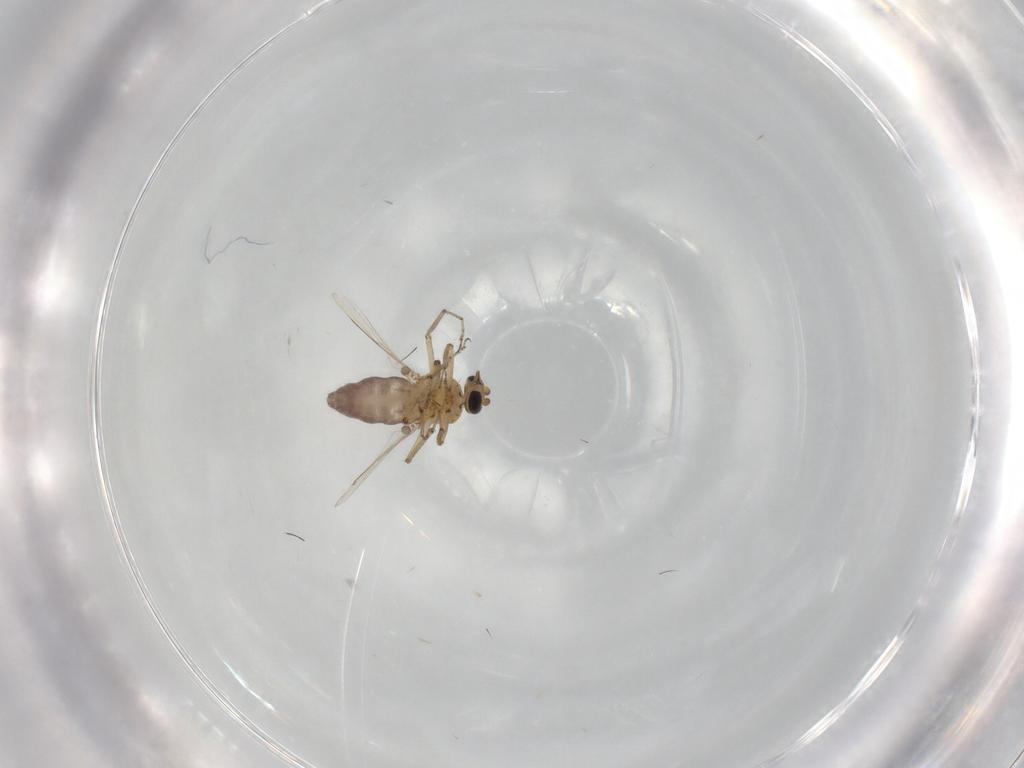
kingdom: Animalia
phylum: Arthropoda
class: Insecta
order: Diptera
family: Ceratopogonidae
